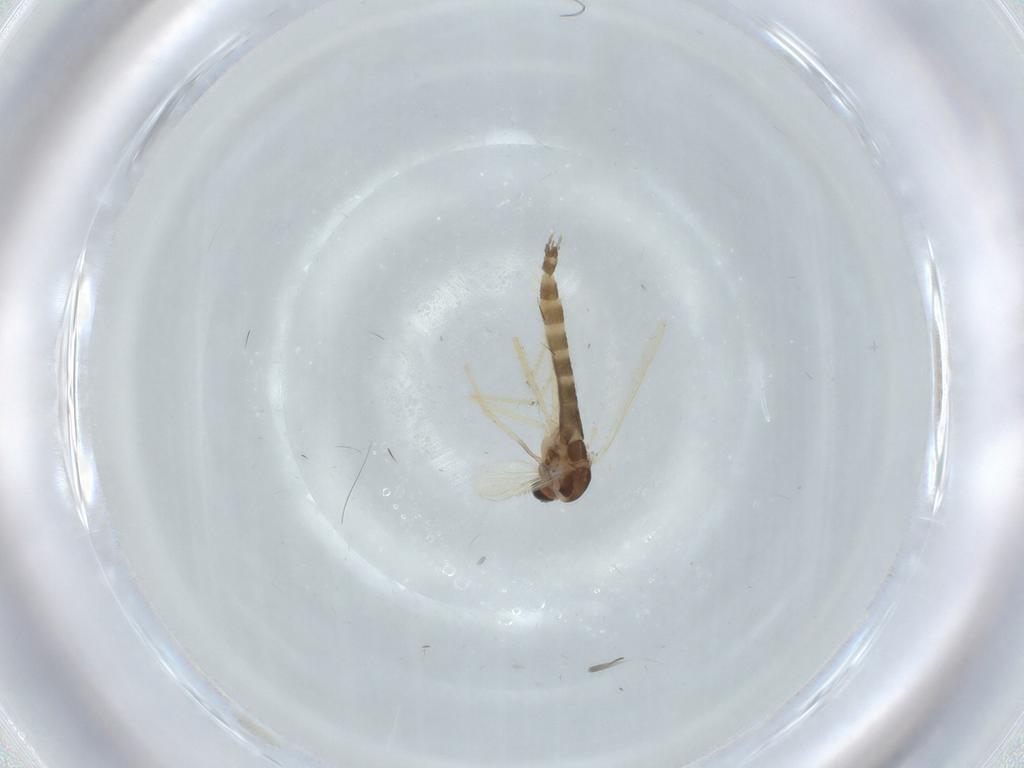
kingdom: Animalia
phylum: Arthropoda
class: Insecta
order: Diptera
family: Chironomidae
